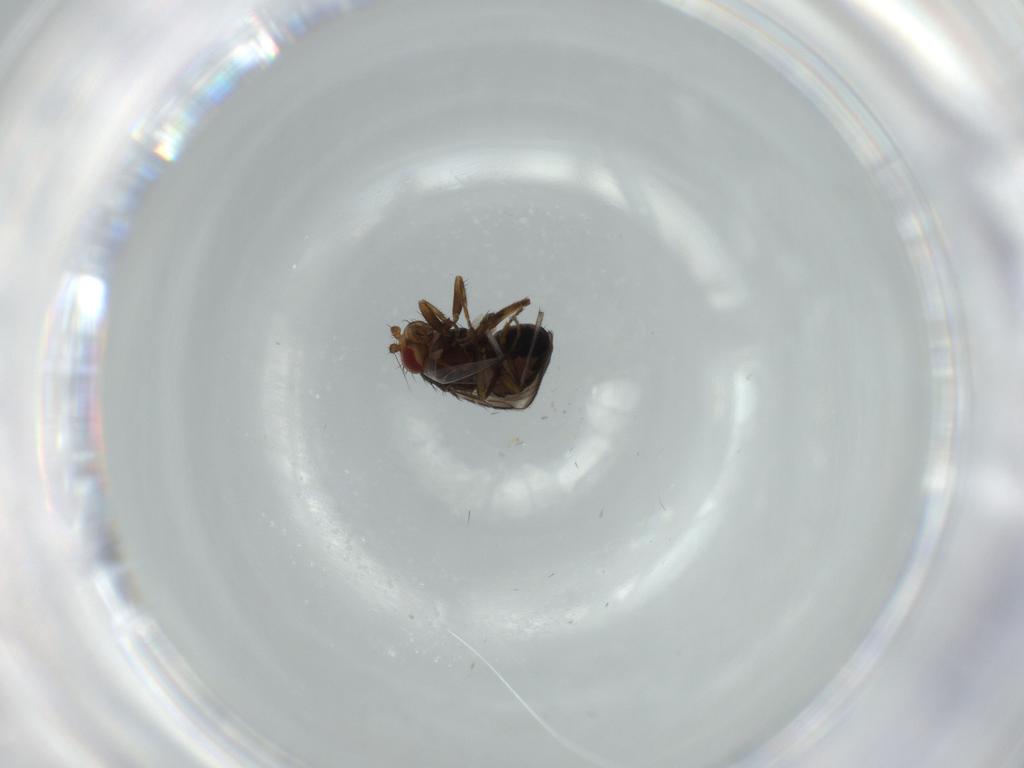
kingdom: Animalia
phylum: Arthropoda
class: Insecta
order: Diptera
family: Chironomidae
